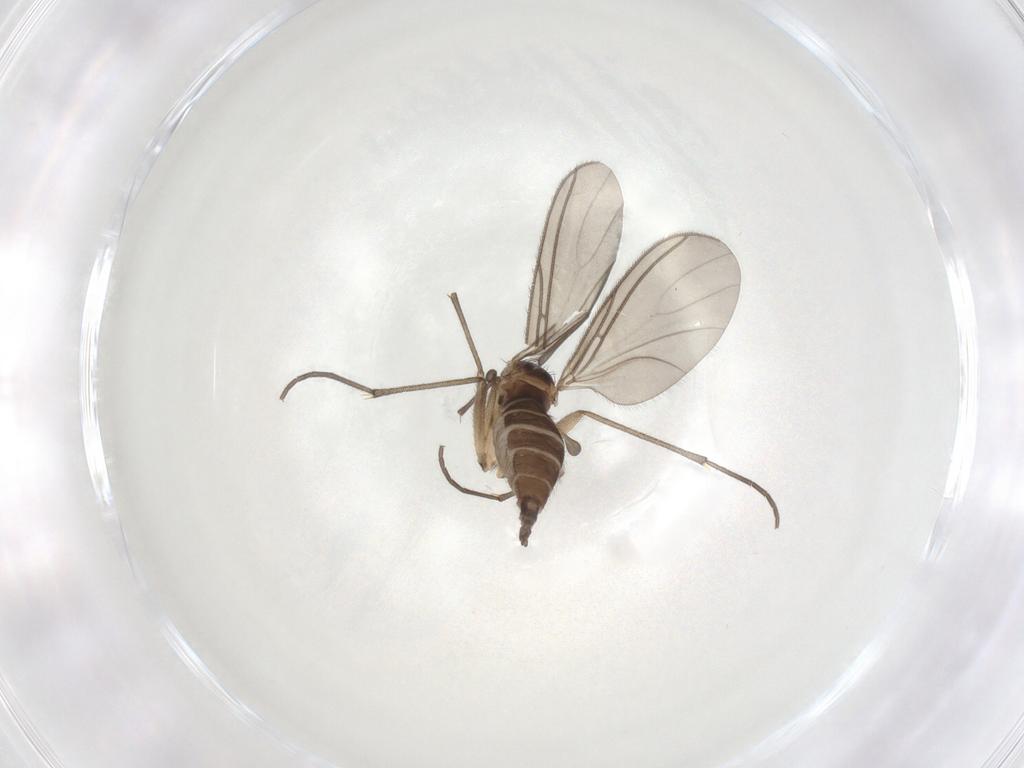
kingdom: Animalia
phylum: Arthropoda
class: Insecta
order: Diptera
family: Sciaridae
